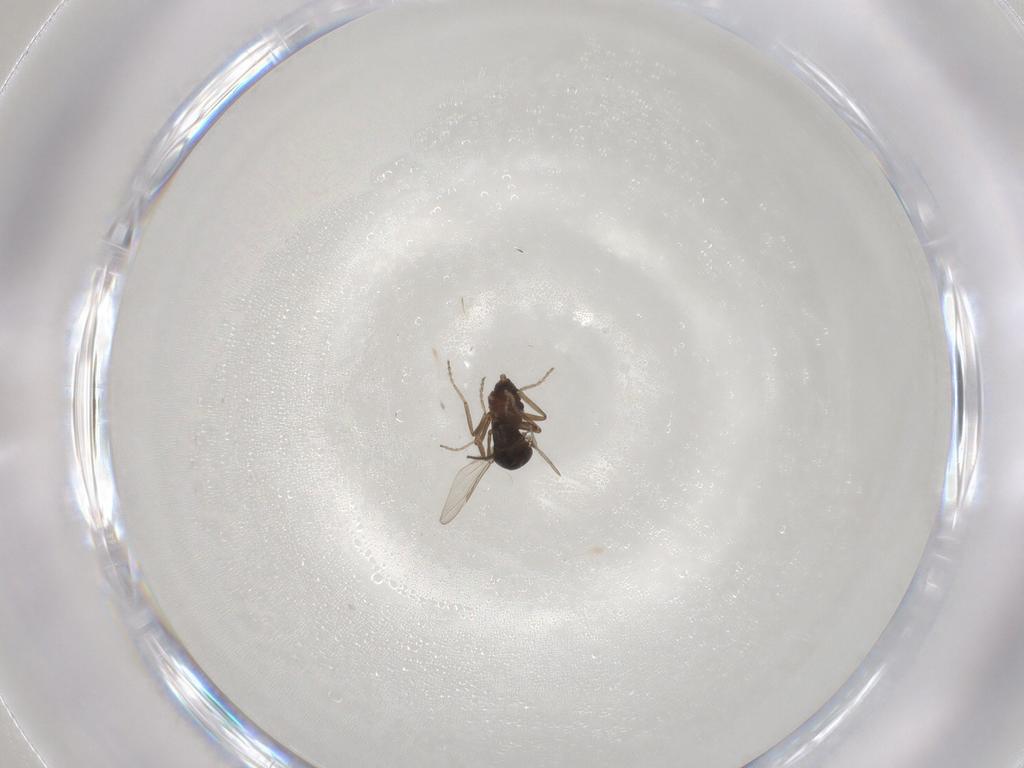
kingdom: Animalia
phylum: Arthropoda
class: Insecta
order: Diptera
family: Ceratopogonidae
